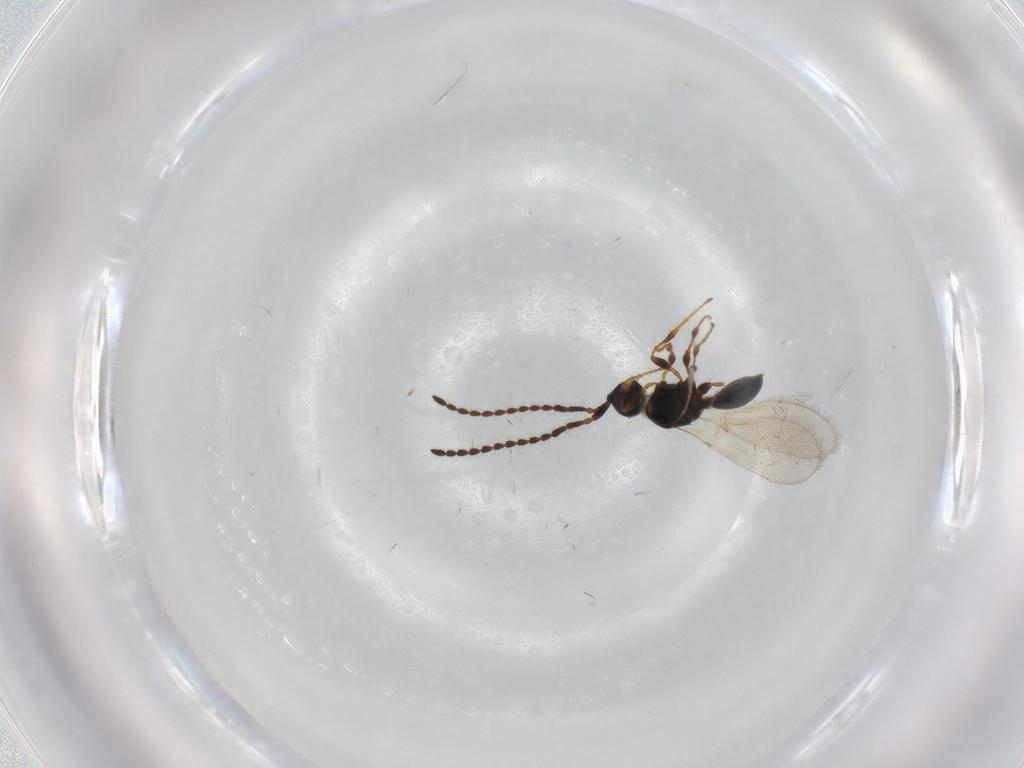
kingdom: Animalia
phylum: Arthropoda
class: Insecta
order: Hymenoptera
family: Diapriidae
